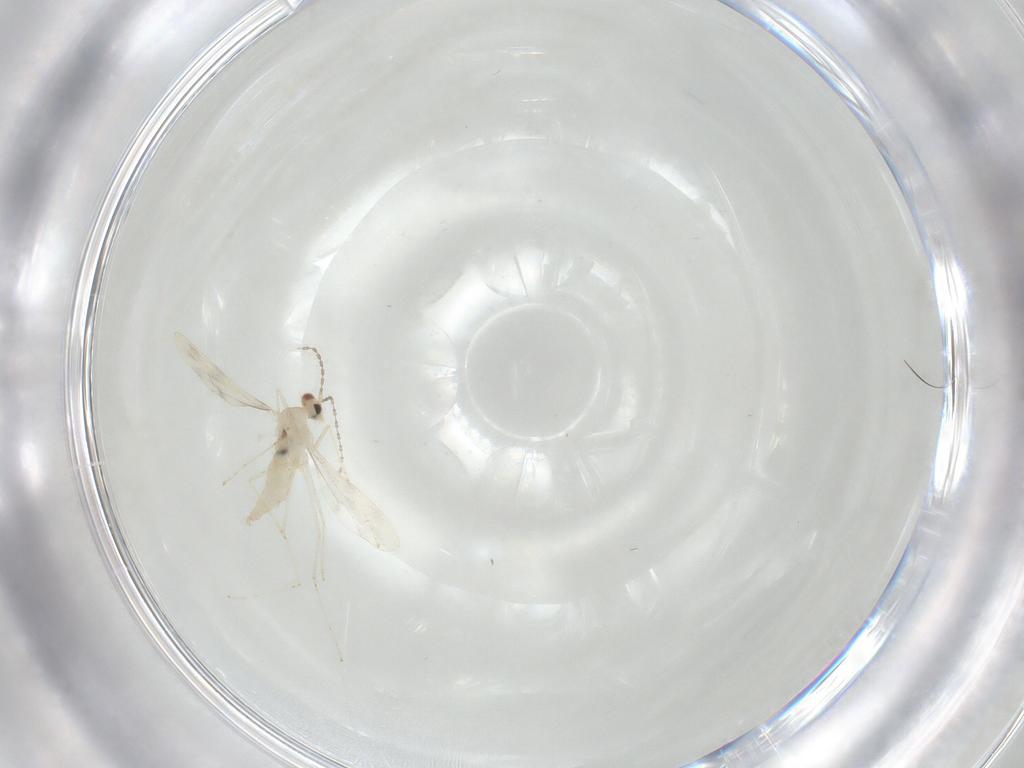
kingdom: Animalia
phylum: Arthropoda
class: Insecta
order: Diptera
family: Cecidomyiidae
